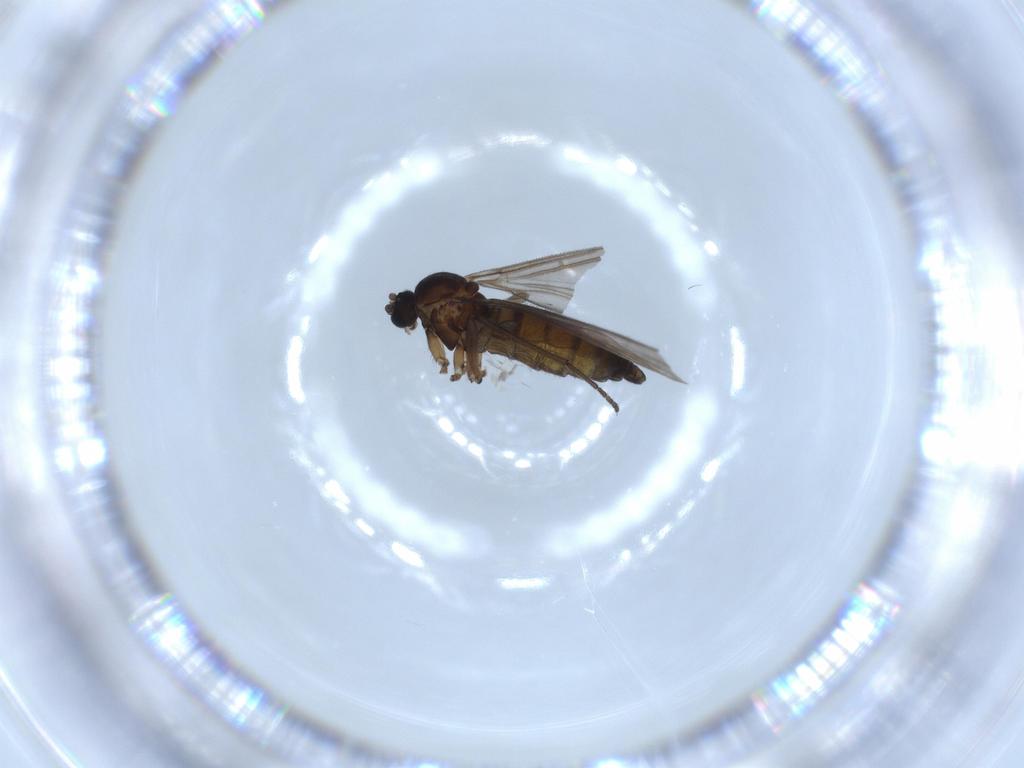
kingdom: Animalia
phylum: Arthropoda
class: Insecta
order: Diptera
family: Sciaridae
